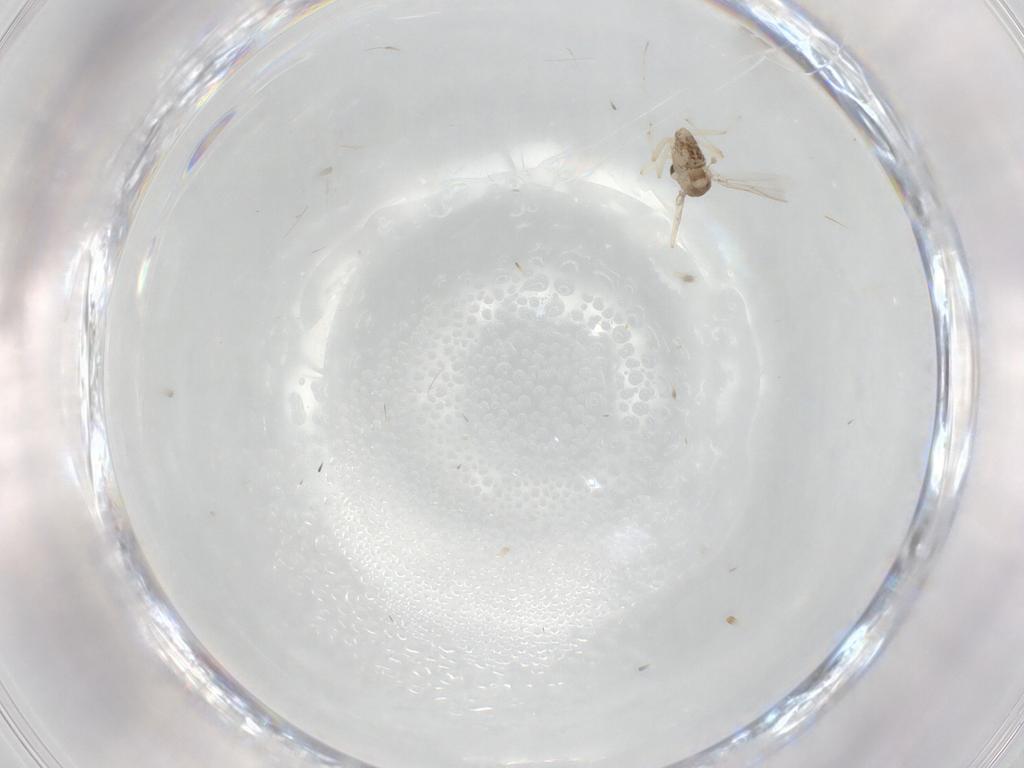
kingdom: Animalia
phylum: Arthropoda
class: Insecta
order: Diptera
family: Chironomidae
